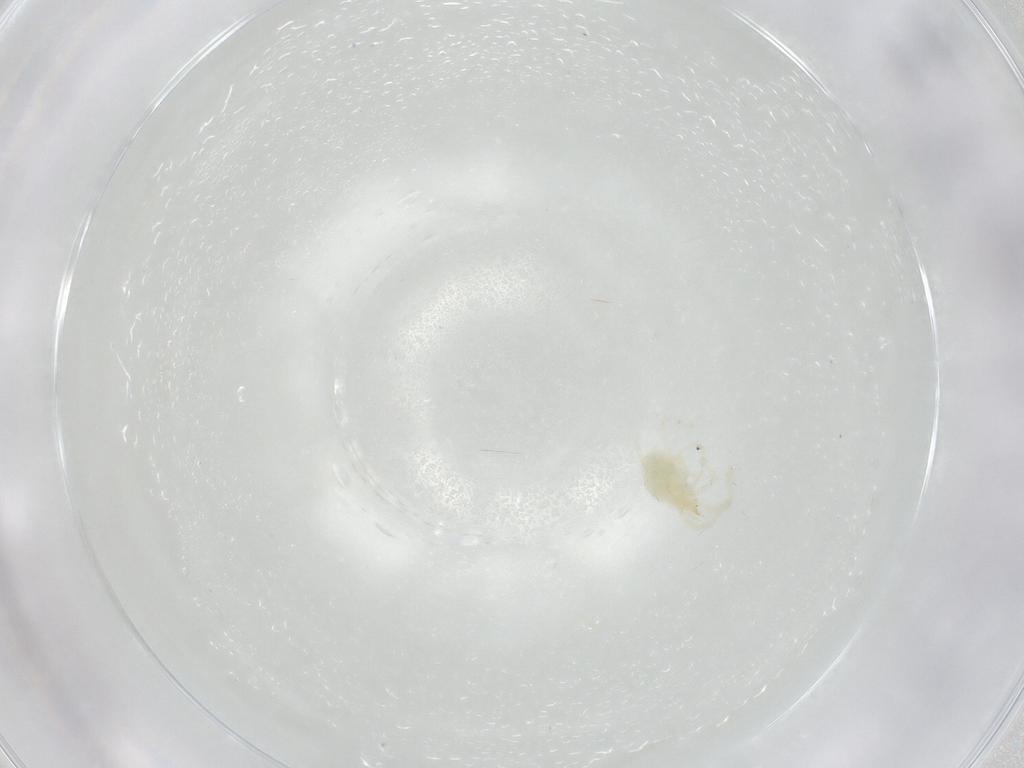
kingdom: Animalia
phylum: Arthropoda
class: Arachnida
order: Trombidiformes
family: Erythraeidae
